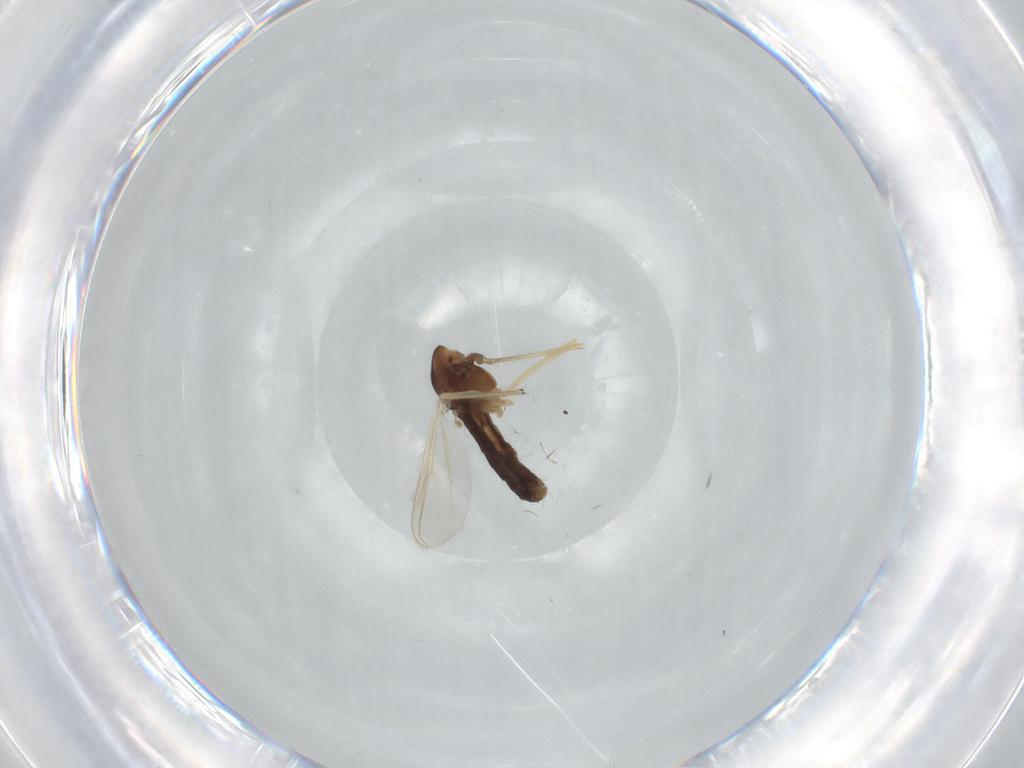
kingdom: Animalia
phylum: Arthropoda
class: Insecta
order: Diptera
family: Chironomidae
